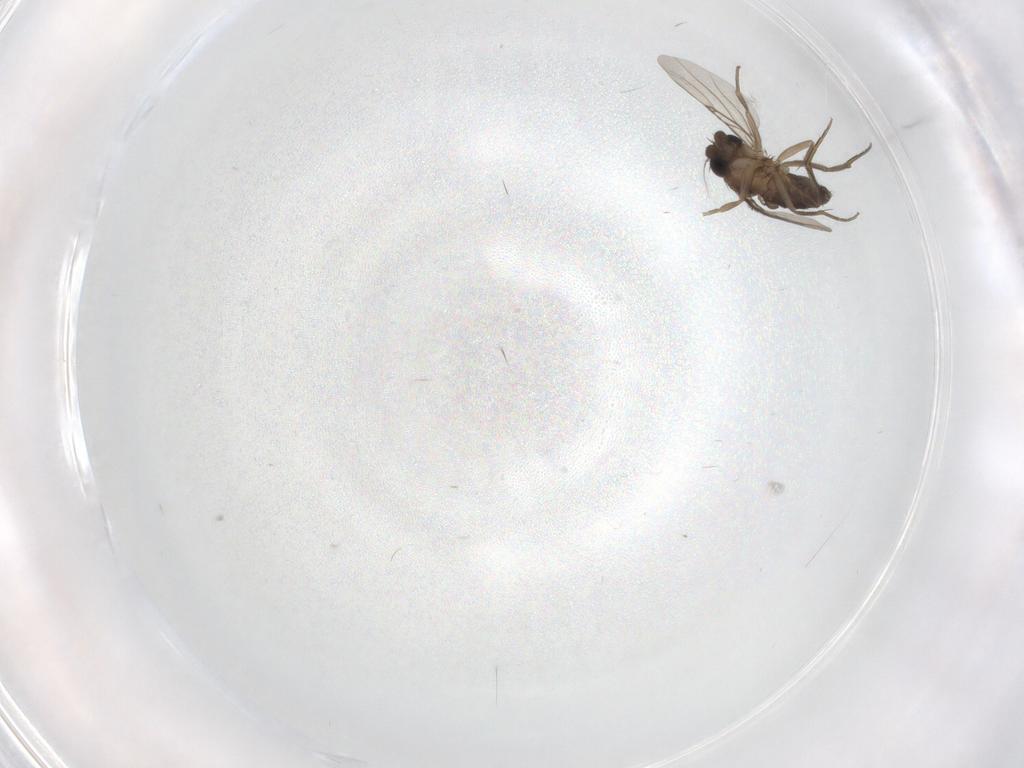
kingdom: Animalia
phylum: Arthropoda
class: Insecta
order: Diptera
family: Phoridae
